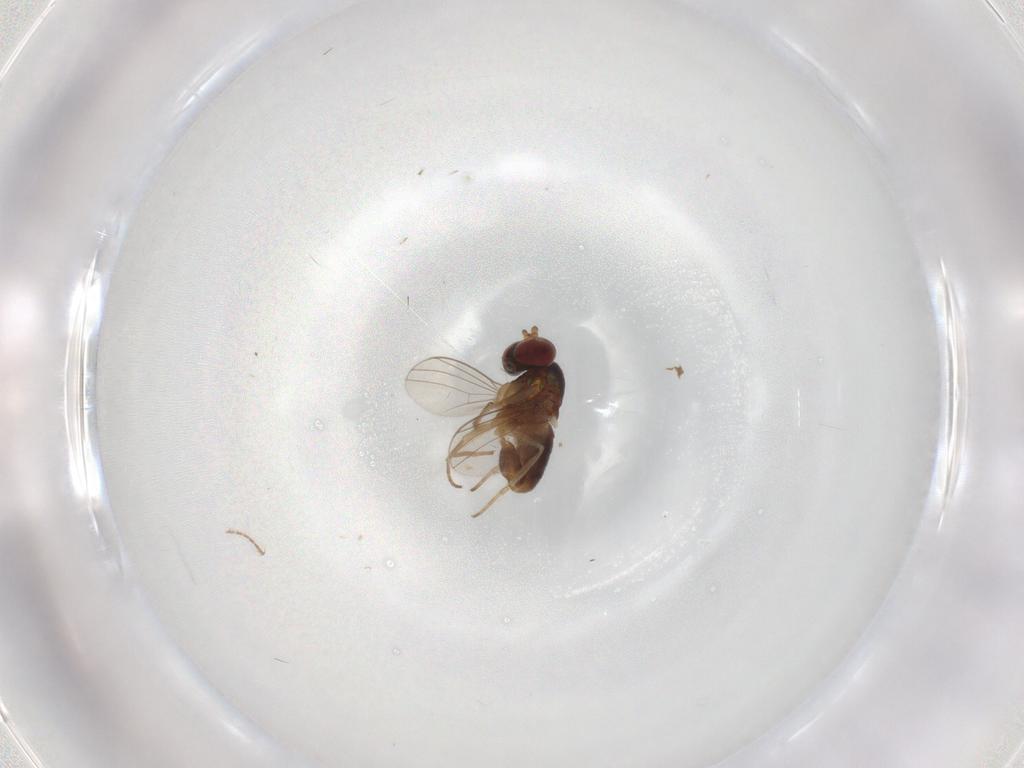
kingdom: Animalia
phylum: Arthropoda
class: Insecta
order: Diptera
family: Dolichopodidae
